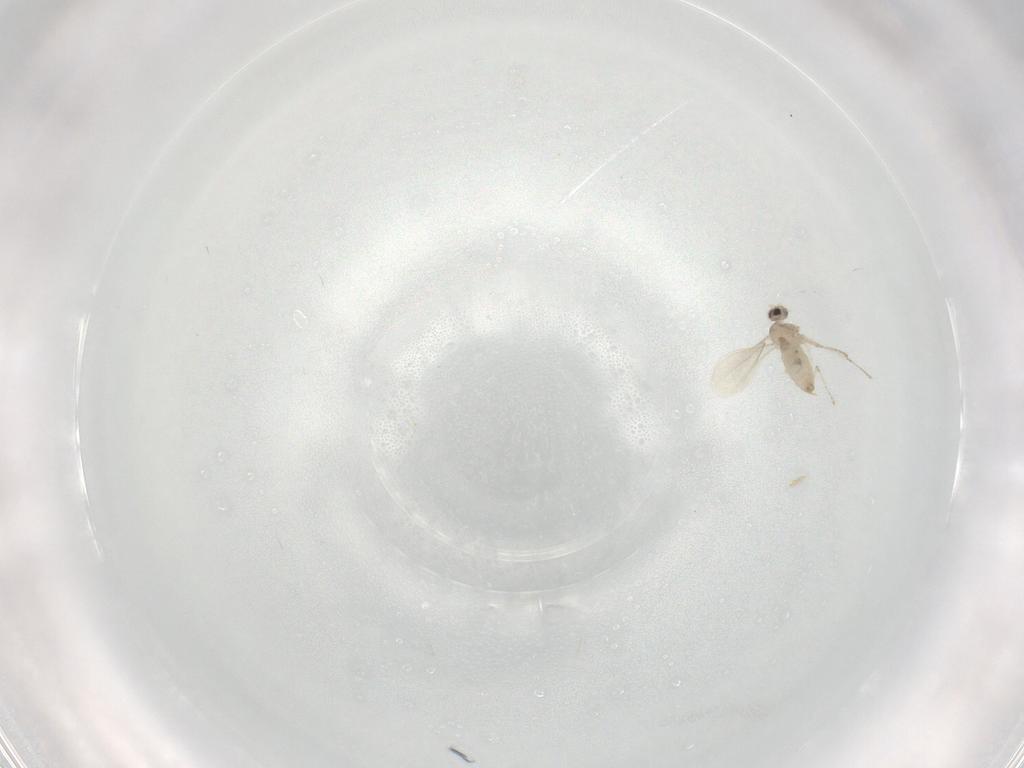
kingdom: Animalia
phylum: Arthropoda
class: Insecta
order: Diptera
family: Cecidomyiidae
